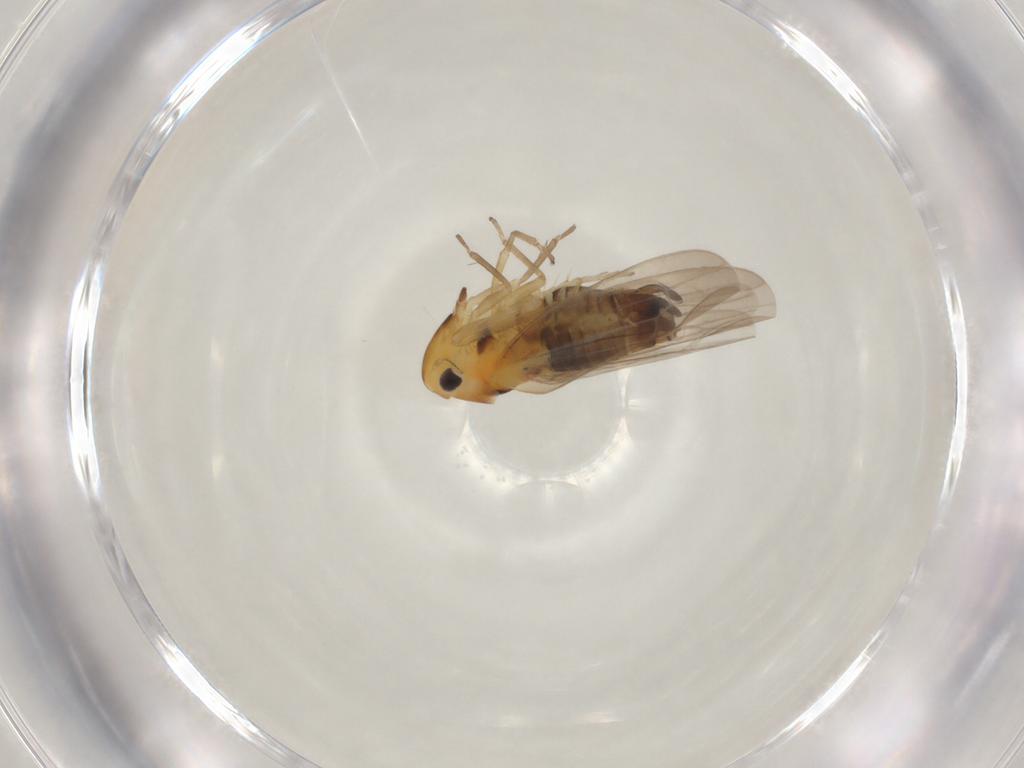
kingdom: Animalia
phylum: Arthropoda
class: Insecta
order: Hemiptera
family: Cicadellidae
